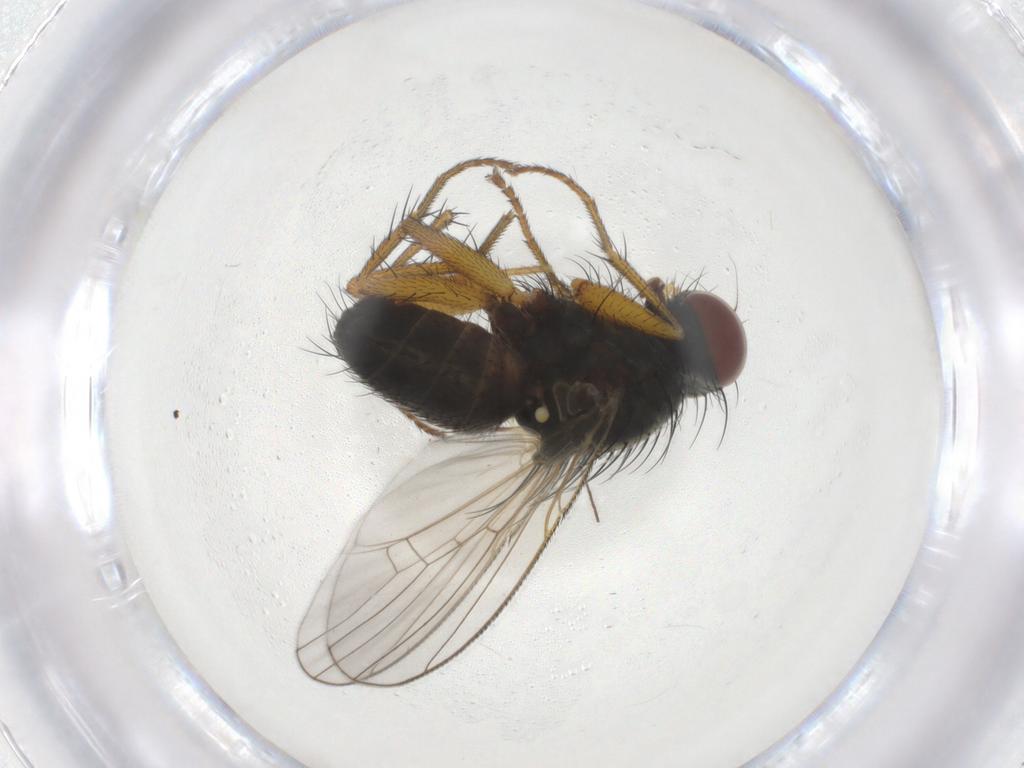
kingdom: Animalia
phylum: Arthropoda
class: Insecta
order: Diptera
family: Muscidae
